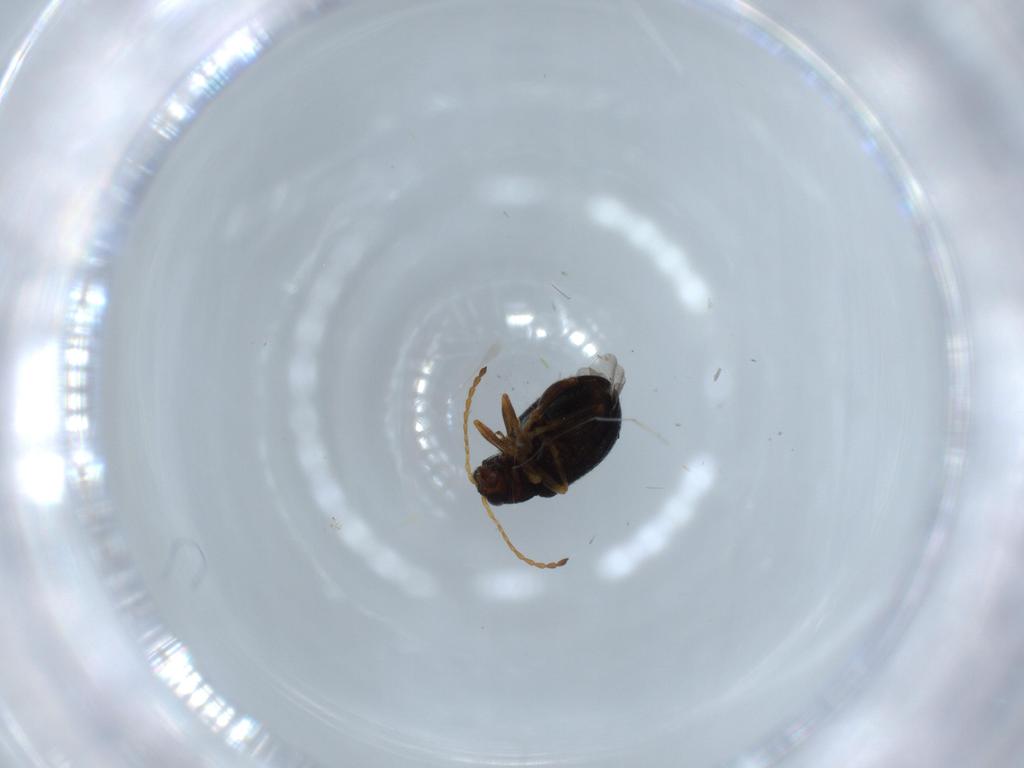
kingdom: Animalia
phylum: Arthropoda
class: Insecta
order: Coleoptera
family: Chrysomelidae
